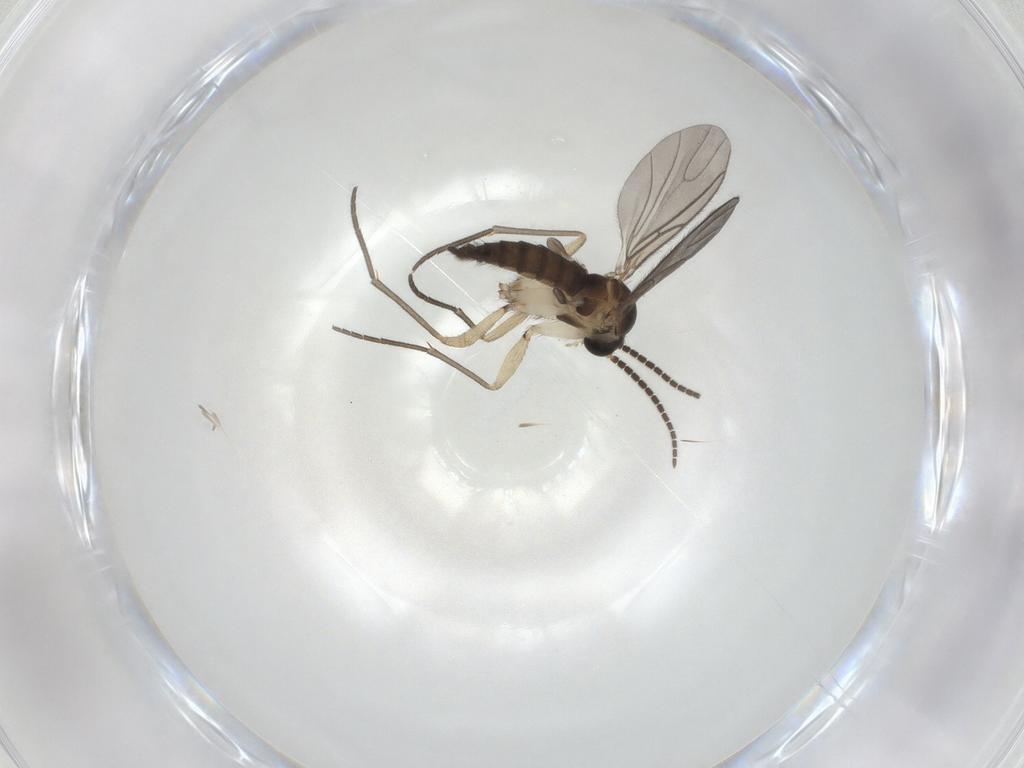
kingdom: Animalia
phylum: Arthropoda
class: Insecta
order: Diptera
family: Sciaridae
